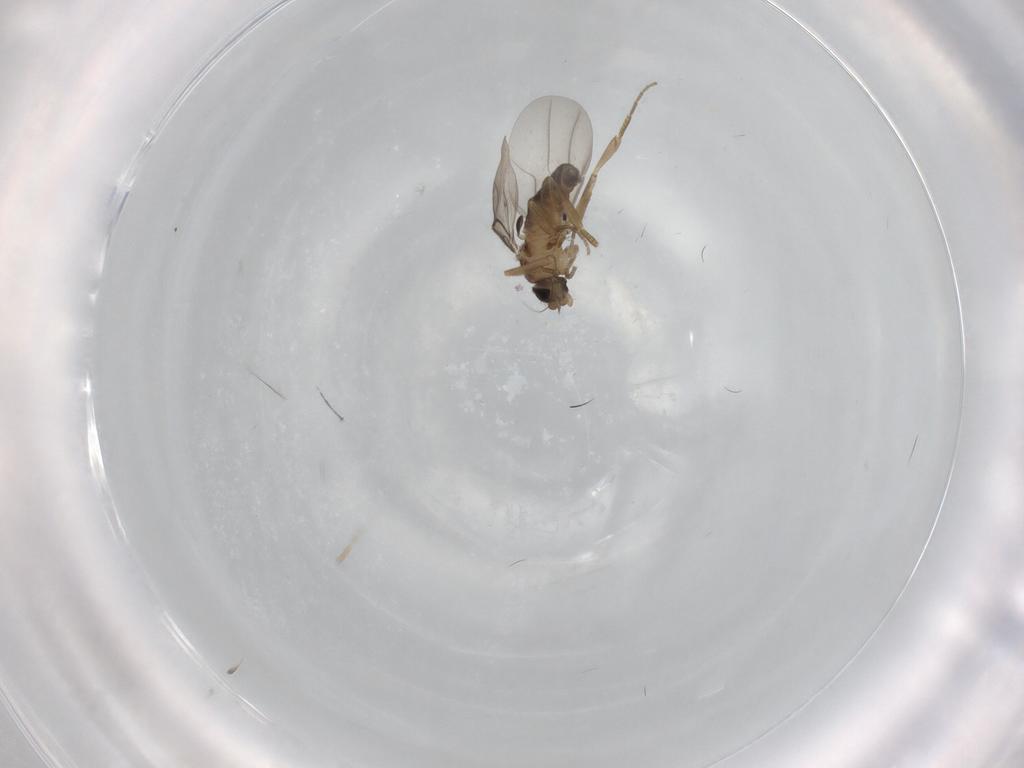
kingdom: Animalia
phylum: Arthropoda
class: Insecta
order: Diptera
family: Phoridae
